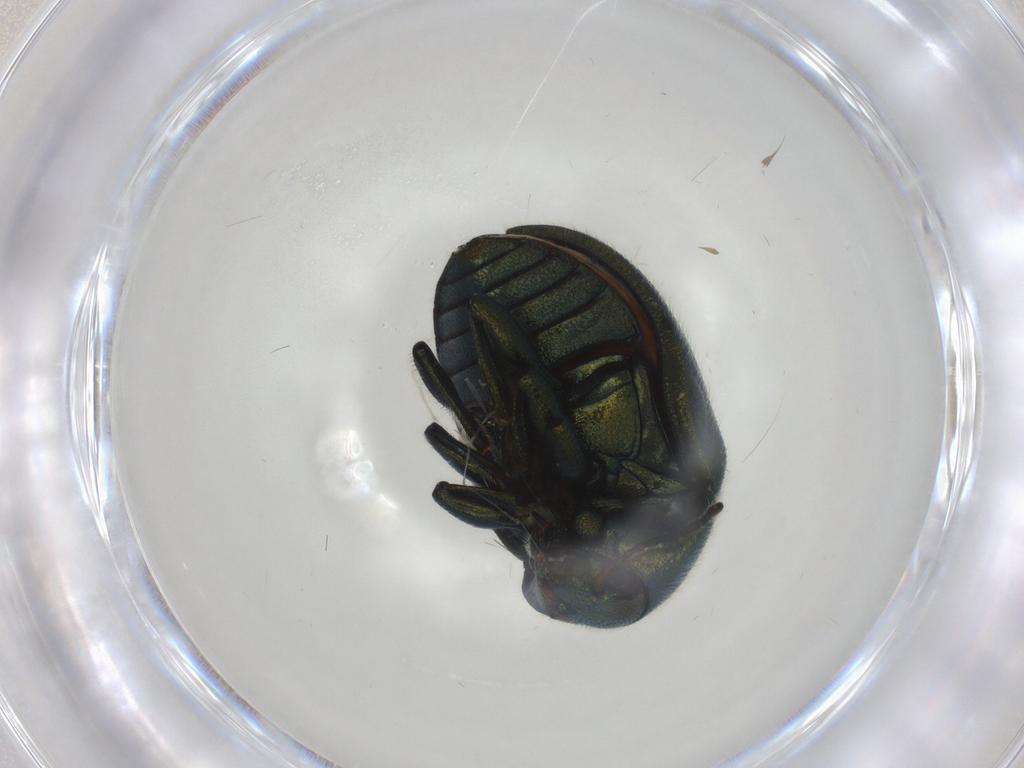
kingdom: Animalia
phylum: Arthropoda
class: Insecta
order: Coleoptera
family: Chrysomelidae
